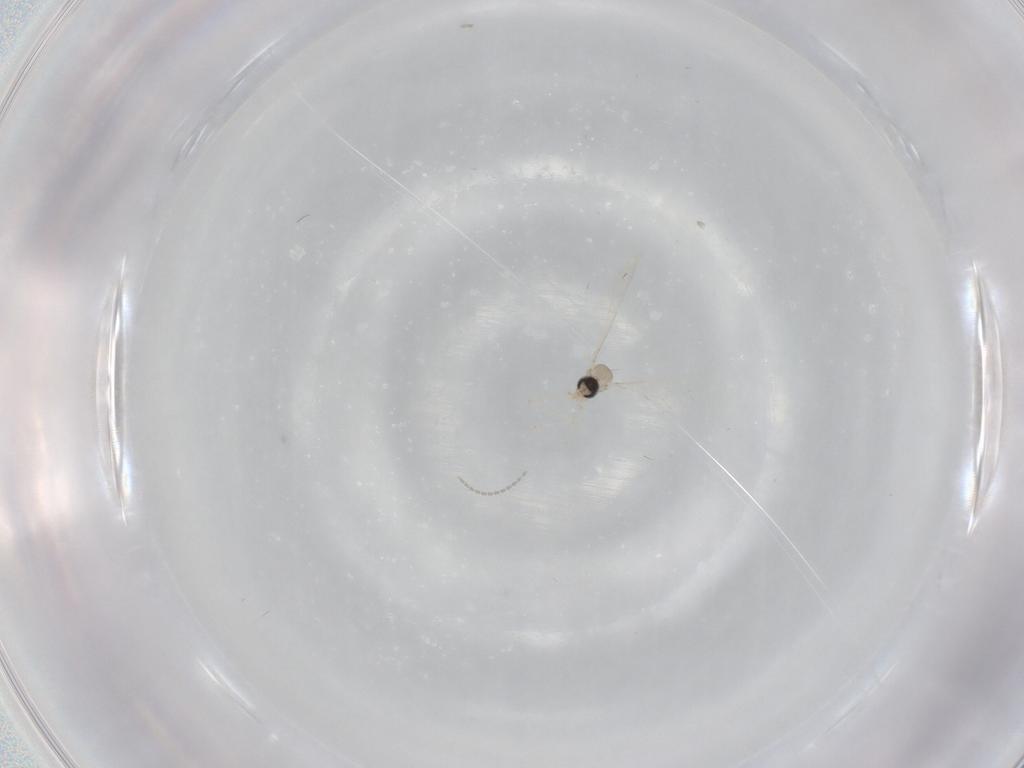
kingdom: Animalia
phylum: Arthropoda
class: Insecta
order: Diptera
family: Cecidomyiidae
